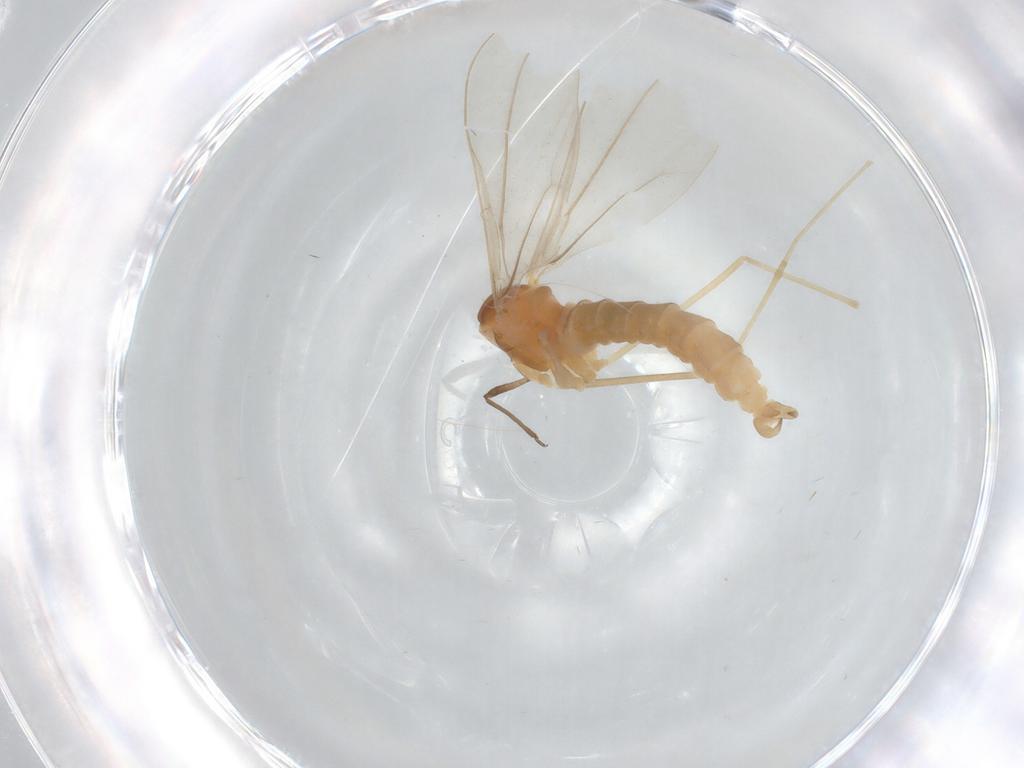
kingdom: Animalia
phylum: Arthropoda
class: Insecta
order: Diptera
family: Cecidomyiidae
